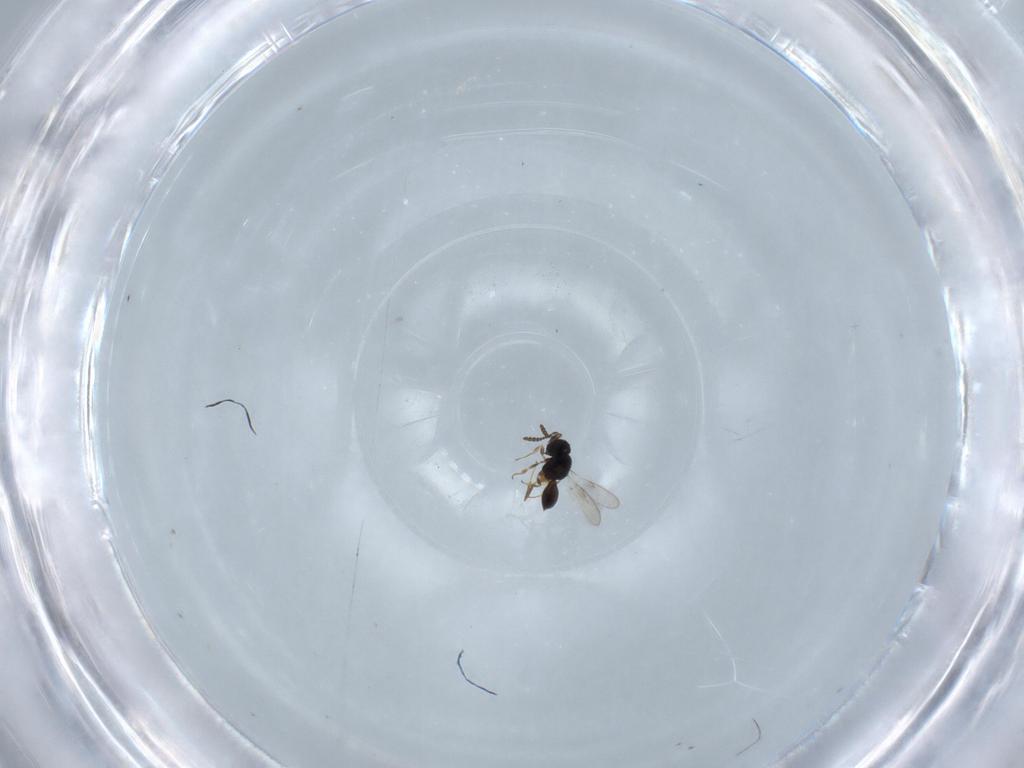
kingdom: Animalia
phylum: Arthropoda
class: Insecta
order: Hymenoptera
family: Scelionidae
